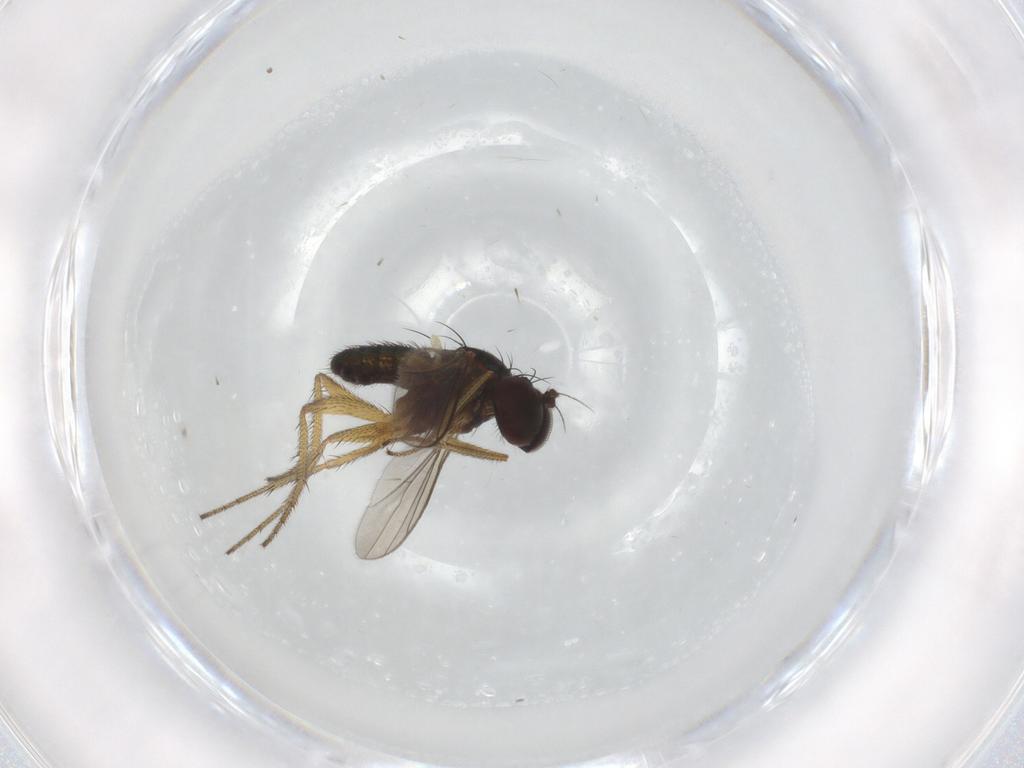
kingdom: Animalia
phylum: Arthropoda
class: Insecta
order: Diptera
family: Dolichopodidae
